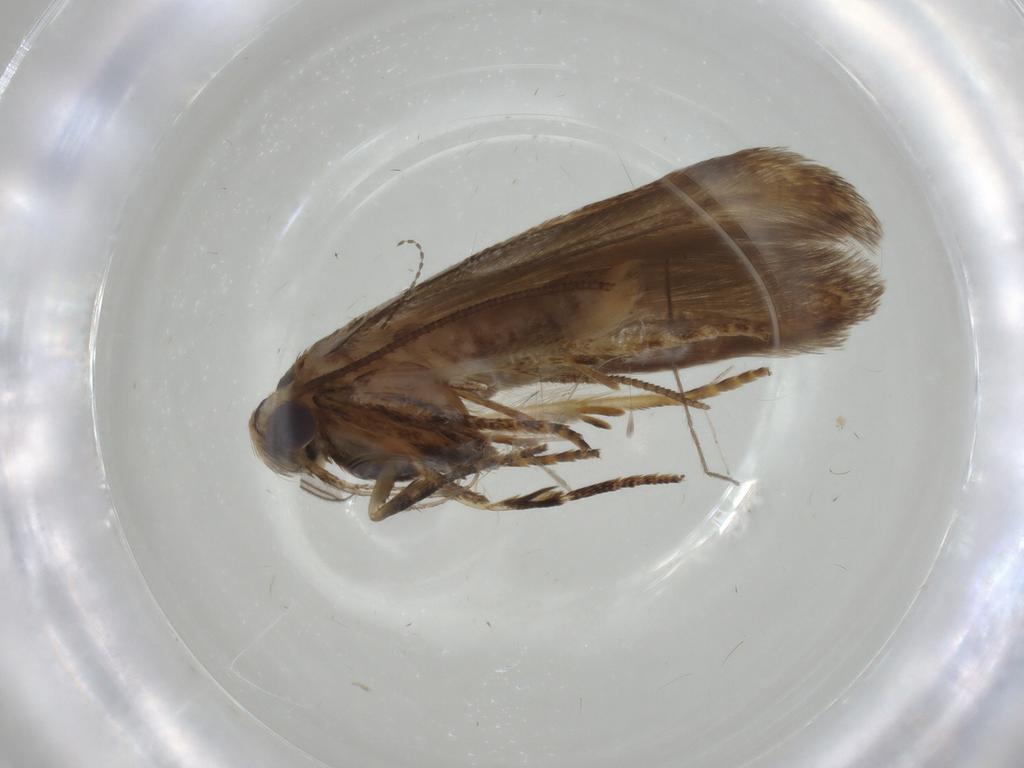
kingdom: Animalia
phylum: Arthropoda
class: Insecta
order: Lepidoptera
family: Blastobasidae
